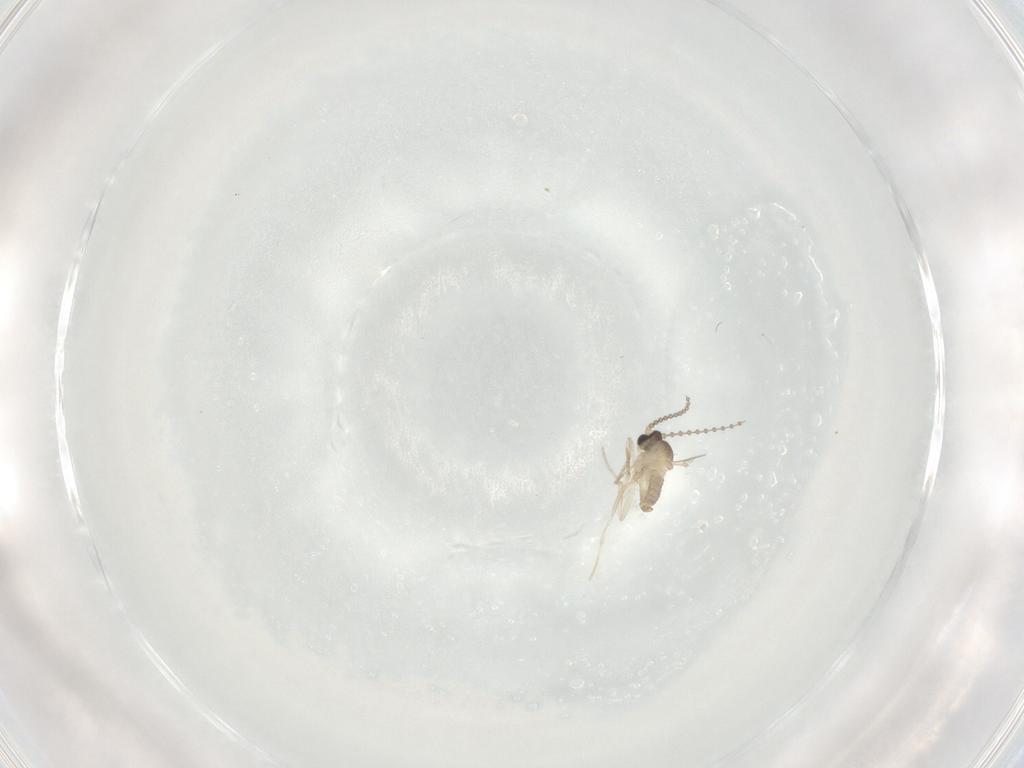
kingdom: Animalia
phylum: Arthropoda
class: Insecta
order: Diptera
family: Cecidomyiidae
